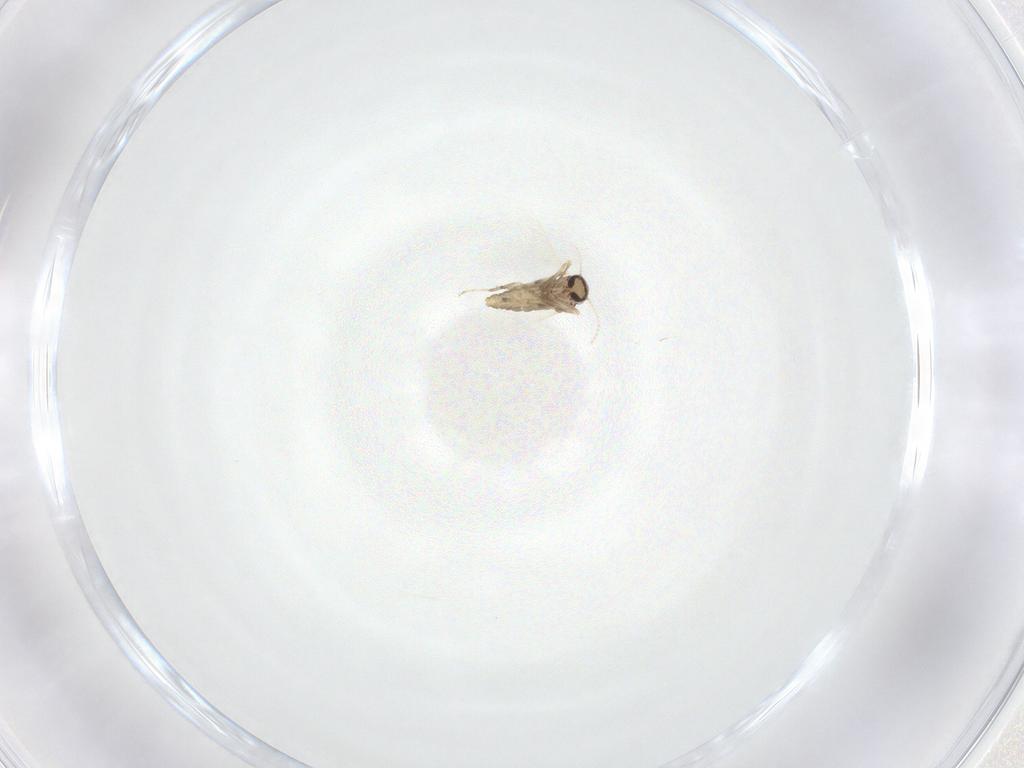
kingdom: Animalia
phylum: Arthropoda
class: Insecta
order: Diptera
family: Ceratopogonidae
